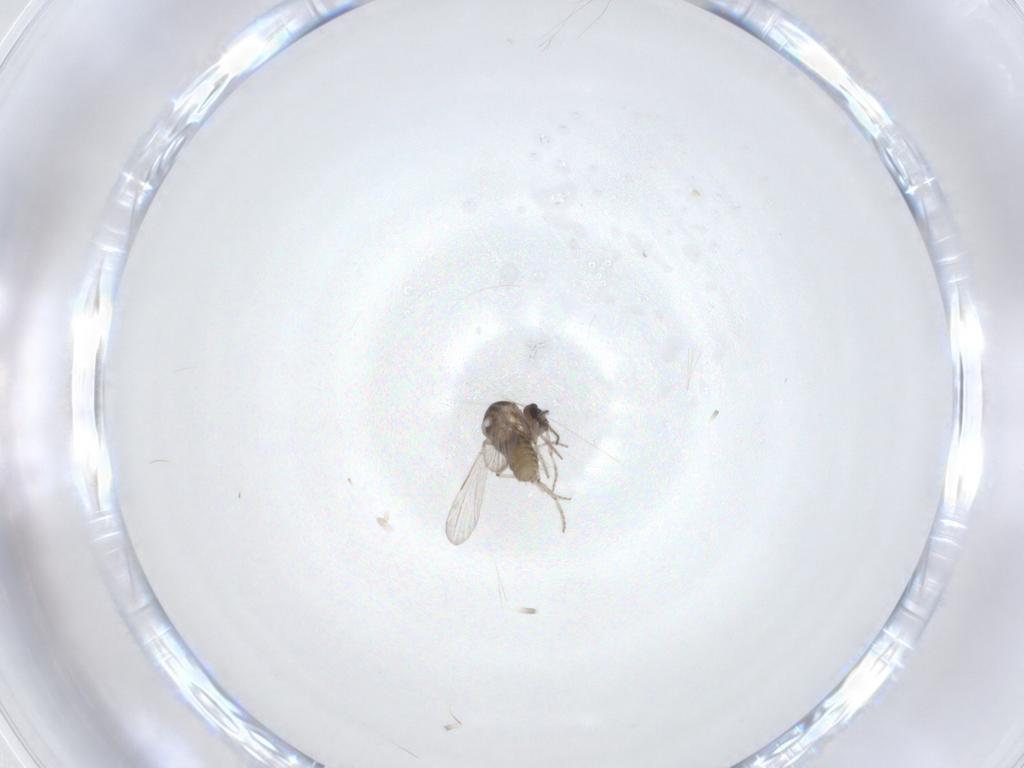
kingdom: Animalia
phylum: Arthropoda
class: Insecta
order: Diptera
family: Ceratopogonidae
